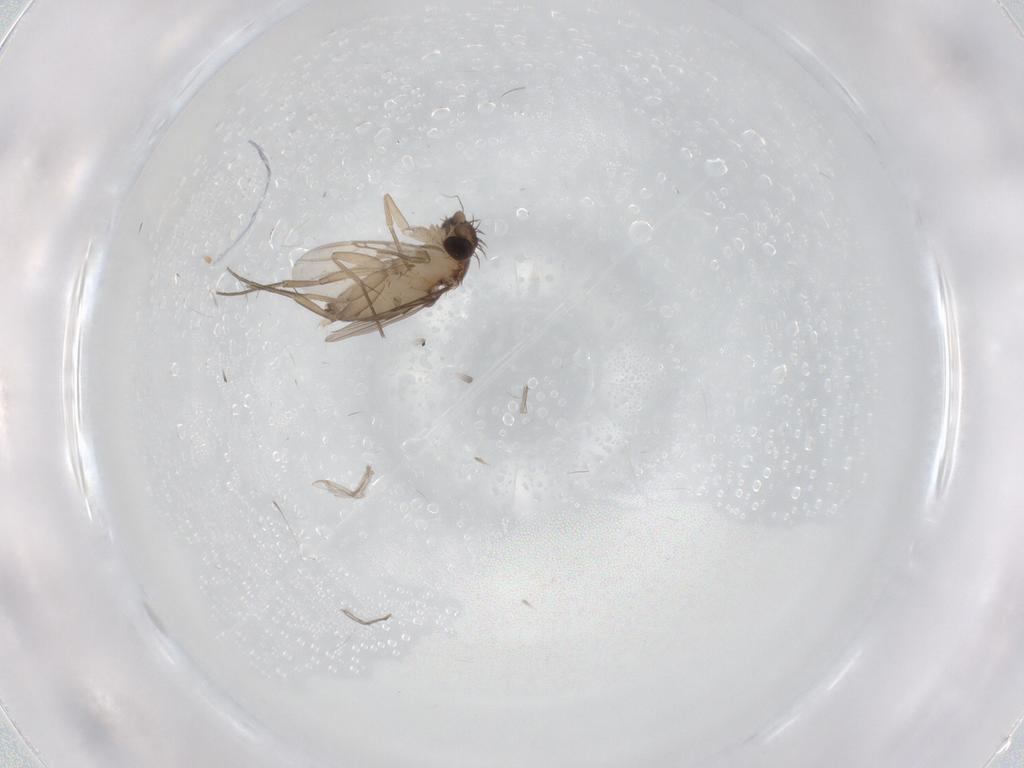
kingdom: Animalia
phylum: Arthropoda
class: Insecta
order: Diptera
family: Phoridae
